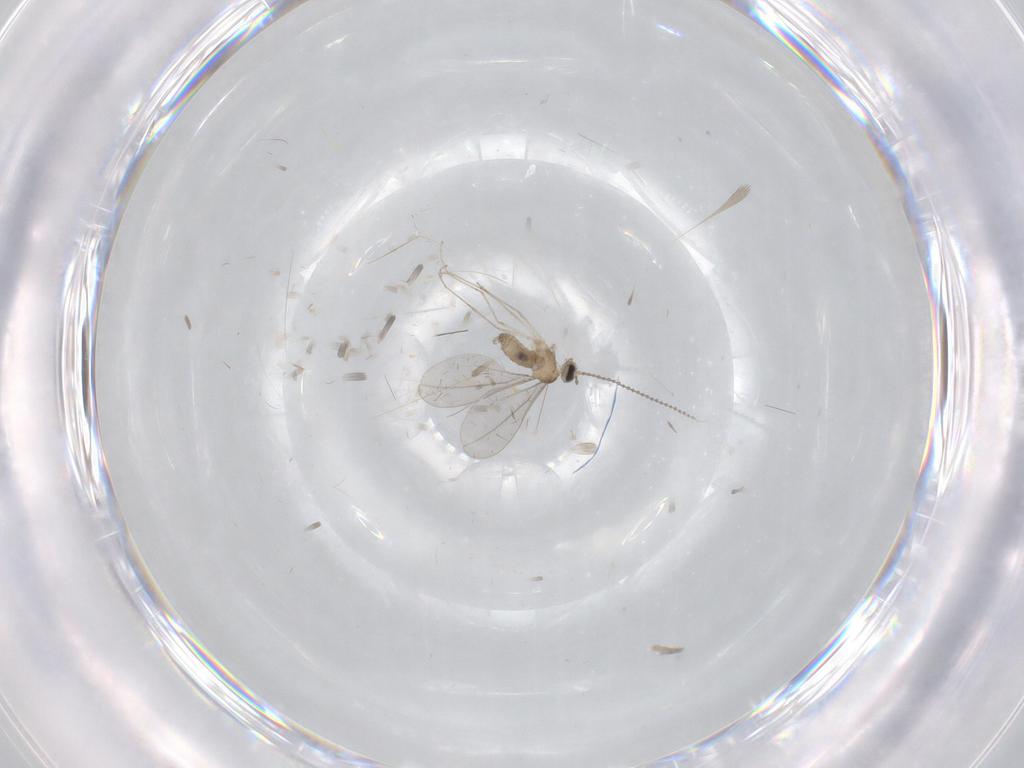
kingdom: Animalia
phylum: Arthropoda
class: Insecta
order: Diptera
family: Cecidomyiidae
